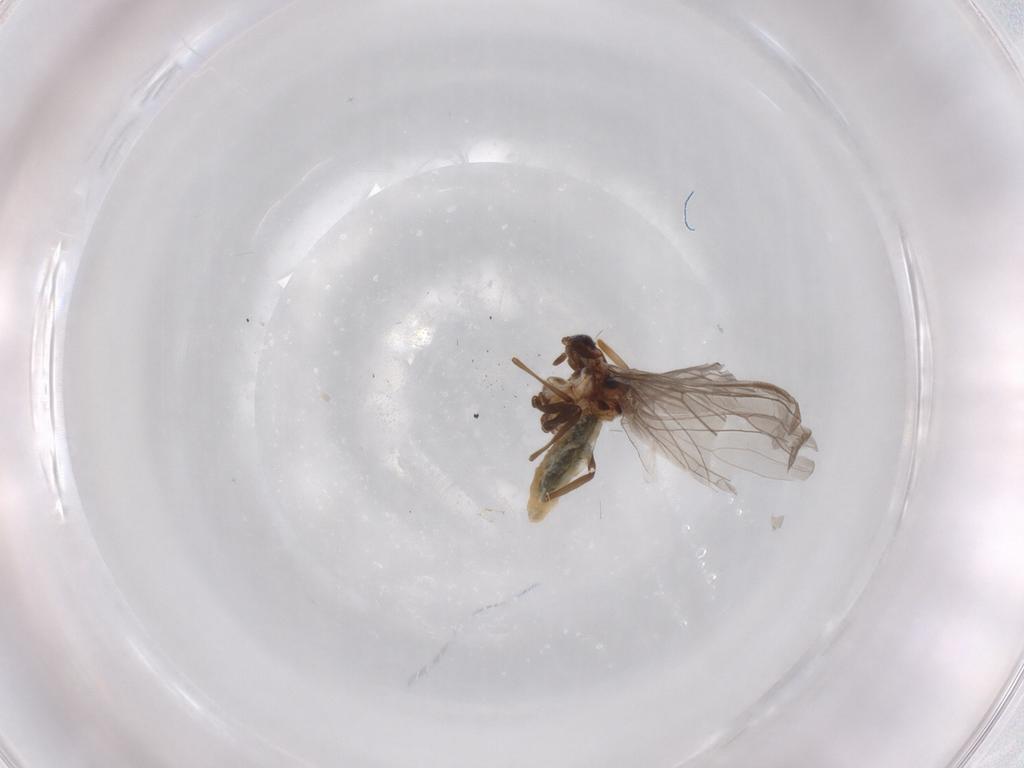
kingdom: Animalia
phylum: Arthropoda
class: Insecta
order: Neuroptera
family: Coniopterygidae
